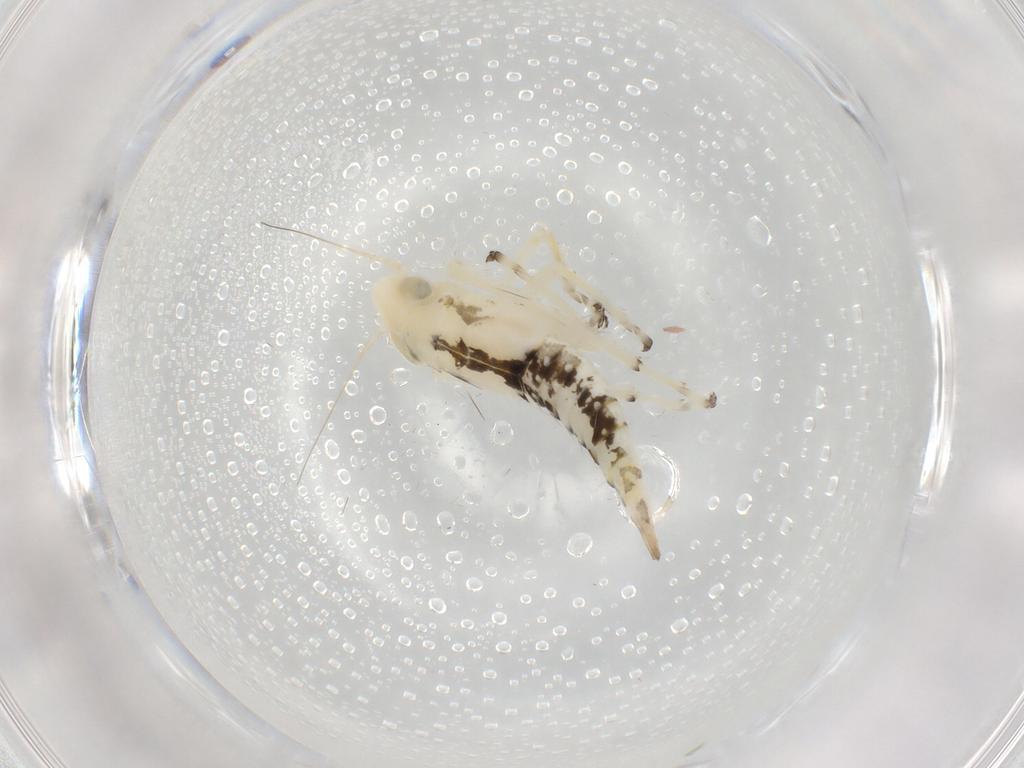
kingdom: Animalia
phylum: Arthropoda
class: Insecta
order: Hemiptera
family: Cicadellidae
